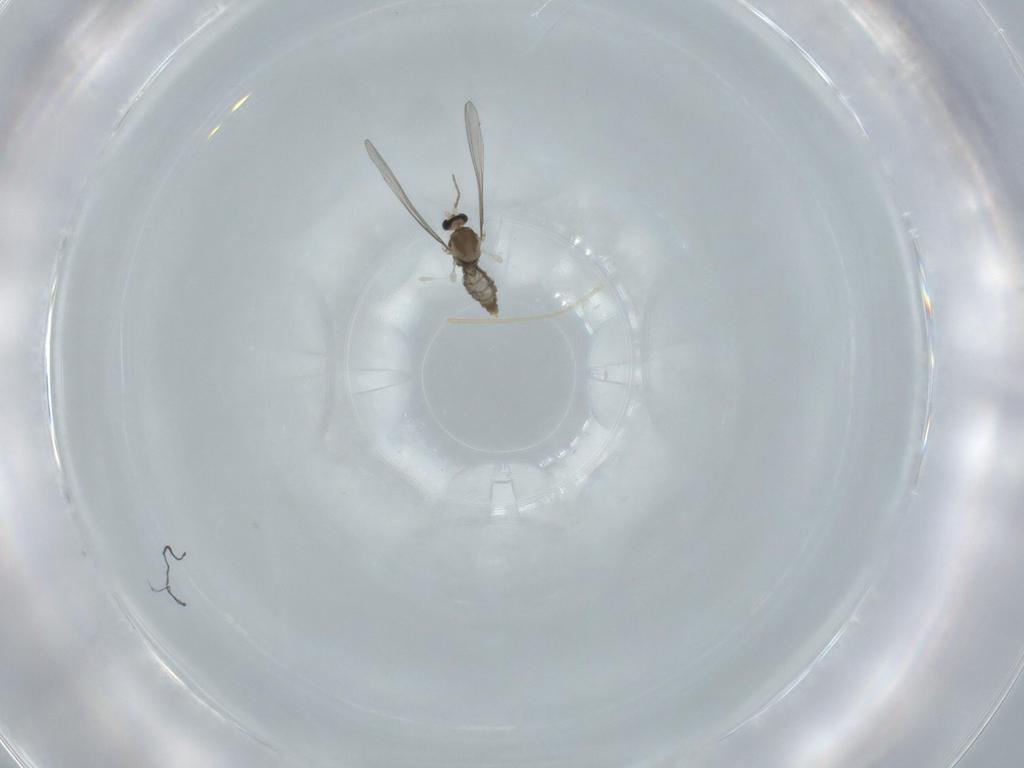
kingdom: Animalia
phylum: Arthropoda
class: Insecta
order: Diptera
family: Cecidomyiidae
